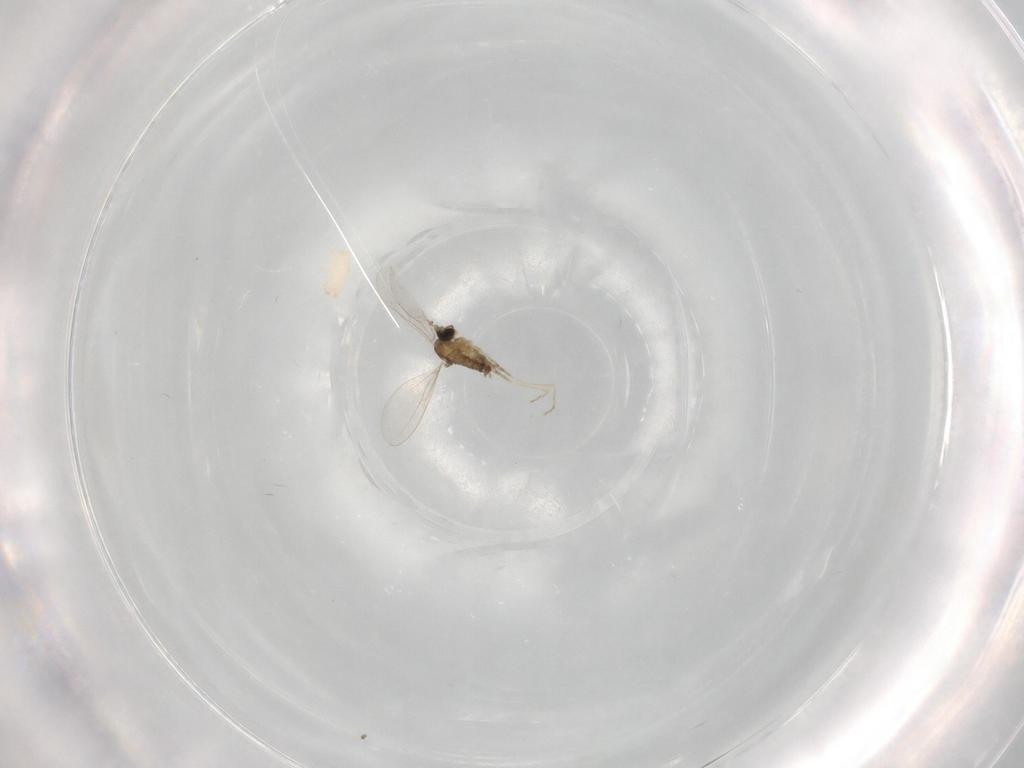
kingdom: Animalia
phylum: Arthropoda
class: Insecta
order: Diptera
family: Cecidomyiidae
